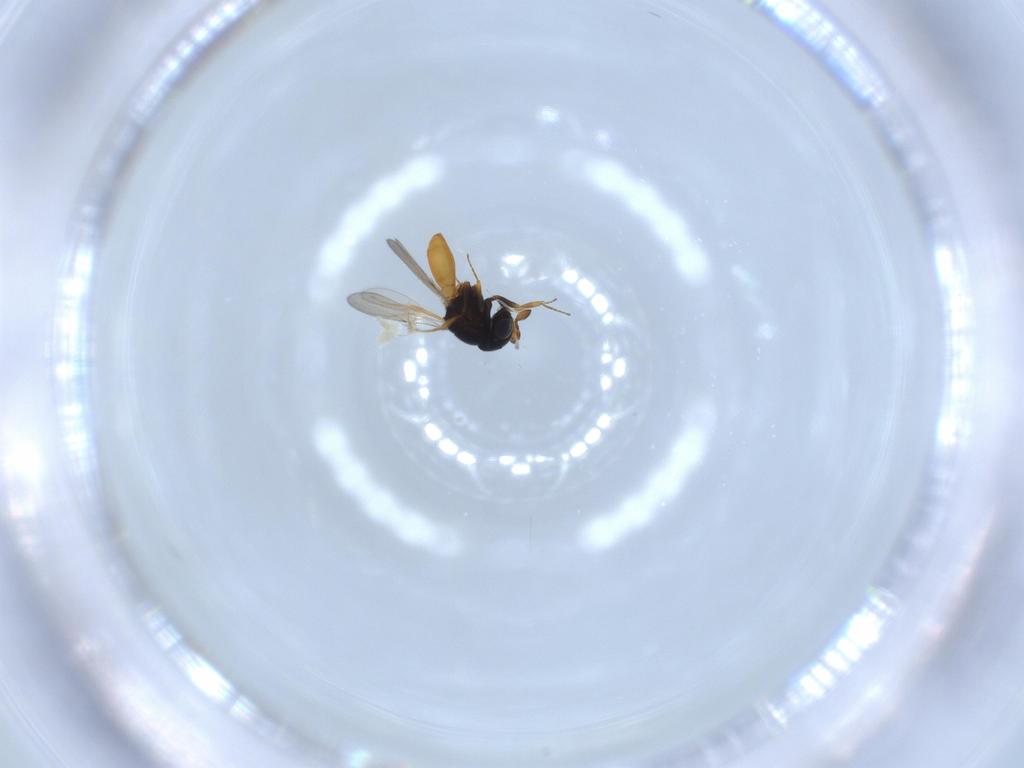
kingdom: Animalia
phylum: Arthropoda
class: Insecta
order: Hymenoptera
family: Scelionidae
